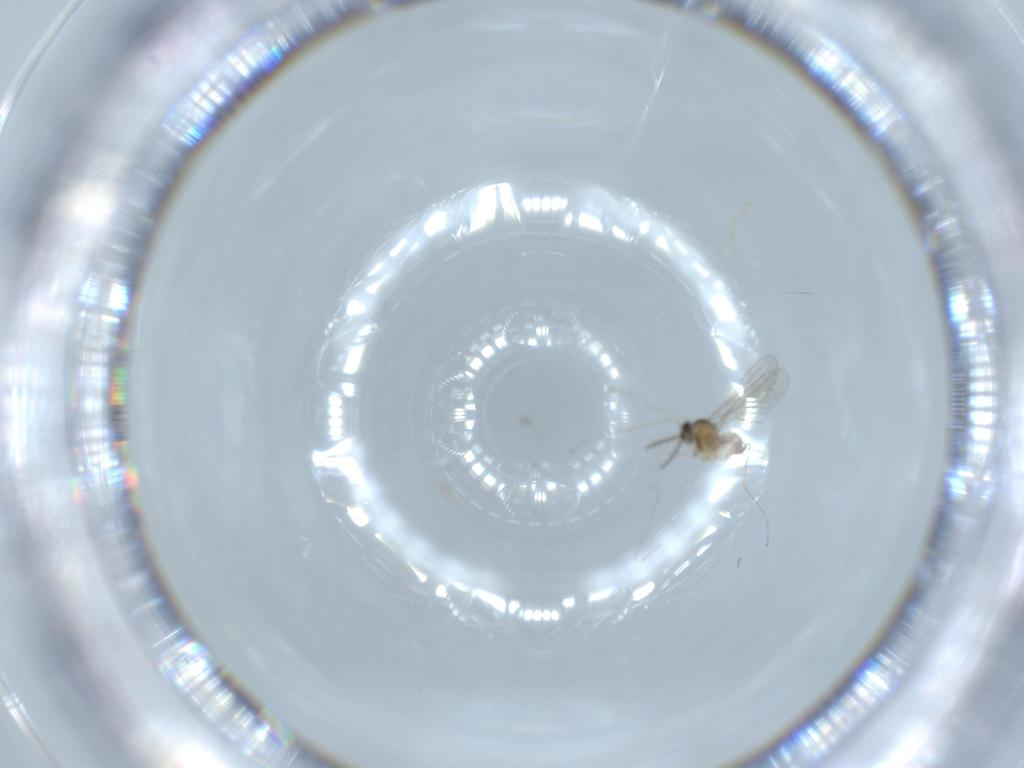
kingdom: Animalia
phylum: Arthropoda
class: Insecta
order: Diptera
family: Cecidomyiidae
